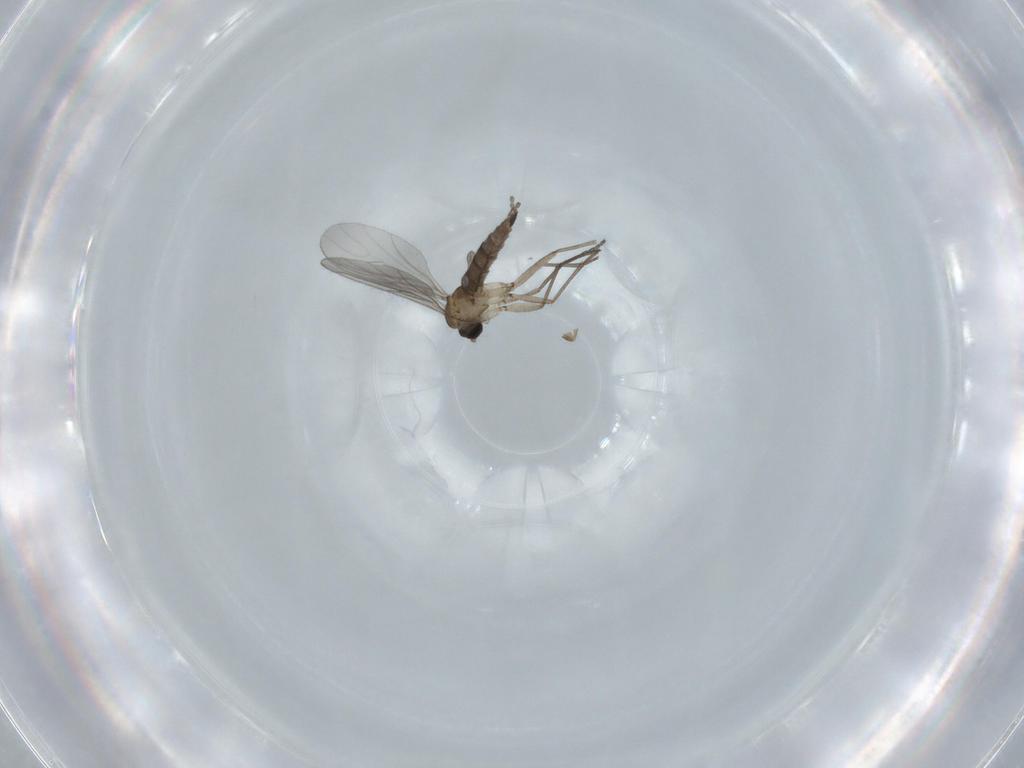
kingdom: Animalia
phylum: Arthropoda
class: Insecta
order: Diptera
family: Sciaridae
